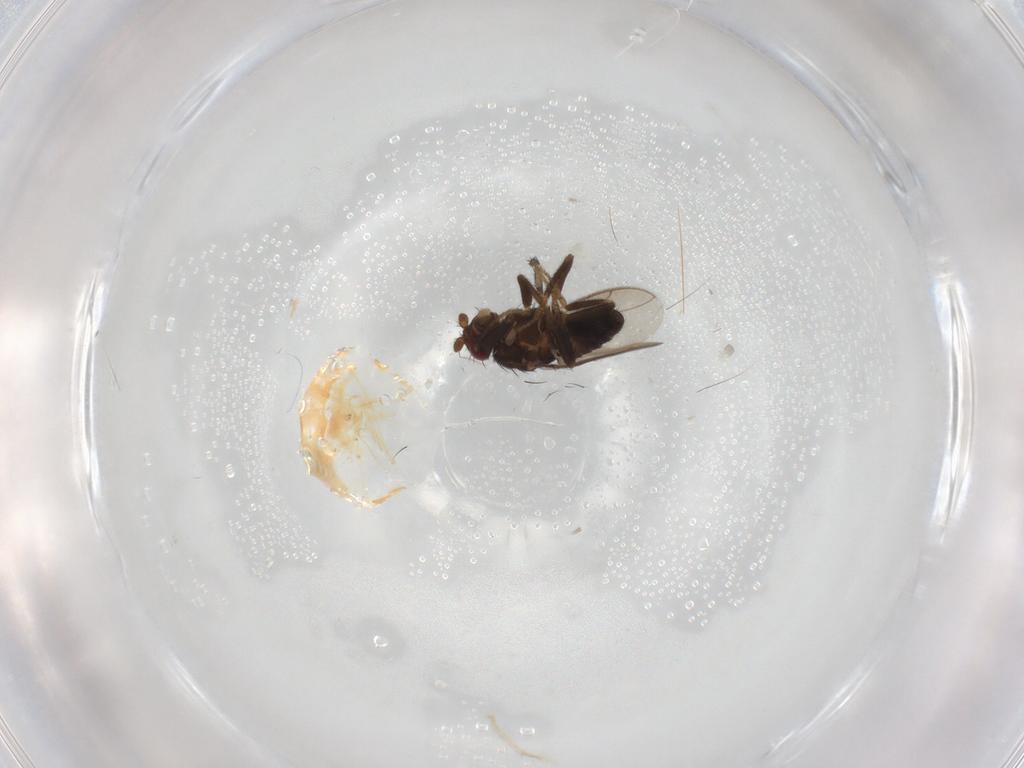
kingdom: Animalia
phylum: Arthropoda
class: Insecta
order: Diptera
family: Sphaeroceridae
